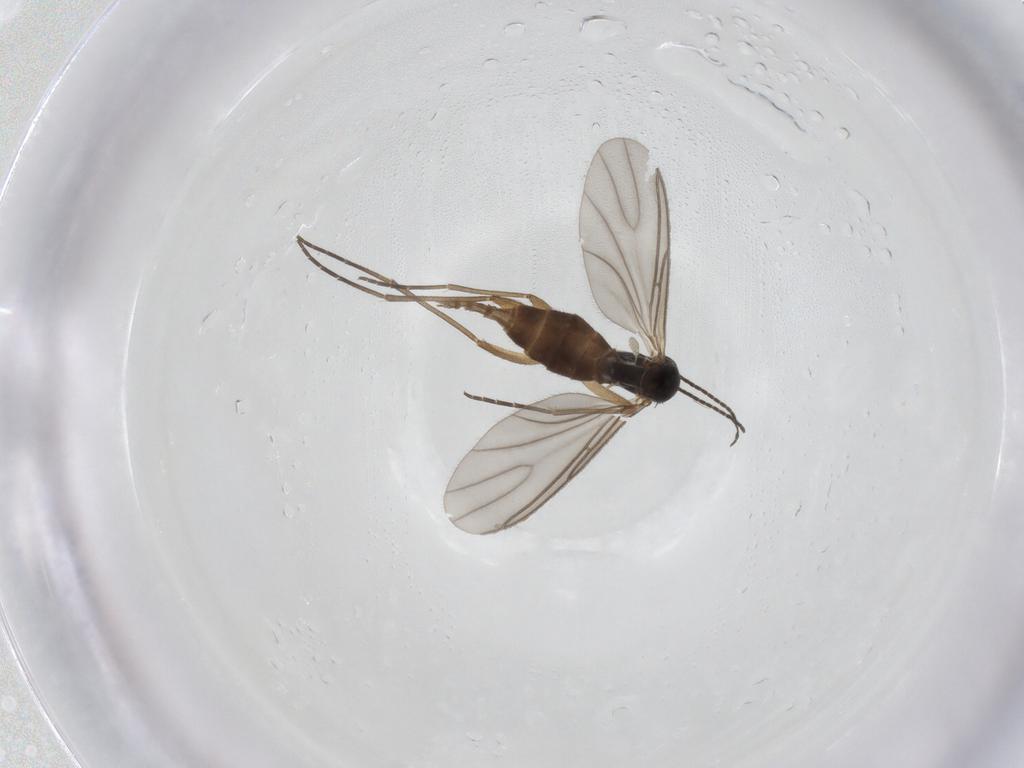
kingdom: Animalia
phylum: Arthropoda
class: Insecta
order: Diptera
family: Sciaridae
